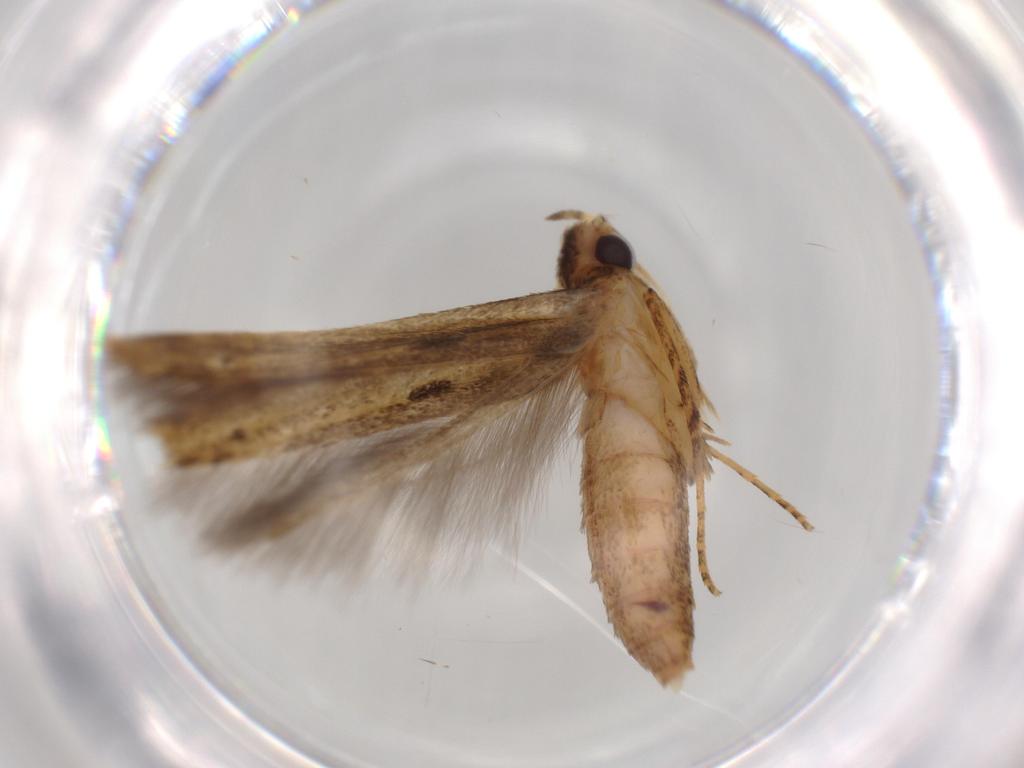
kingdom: Animalia
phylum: Arthropoda
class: Insecta
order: Lepidoptera
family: Batrachedridae
